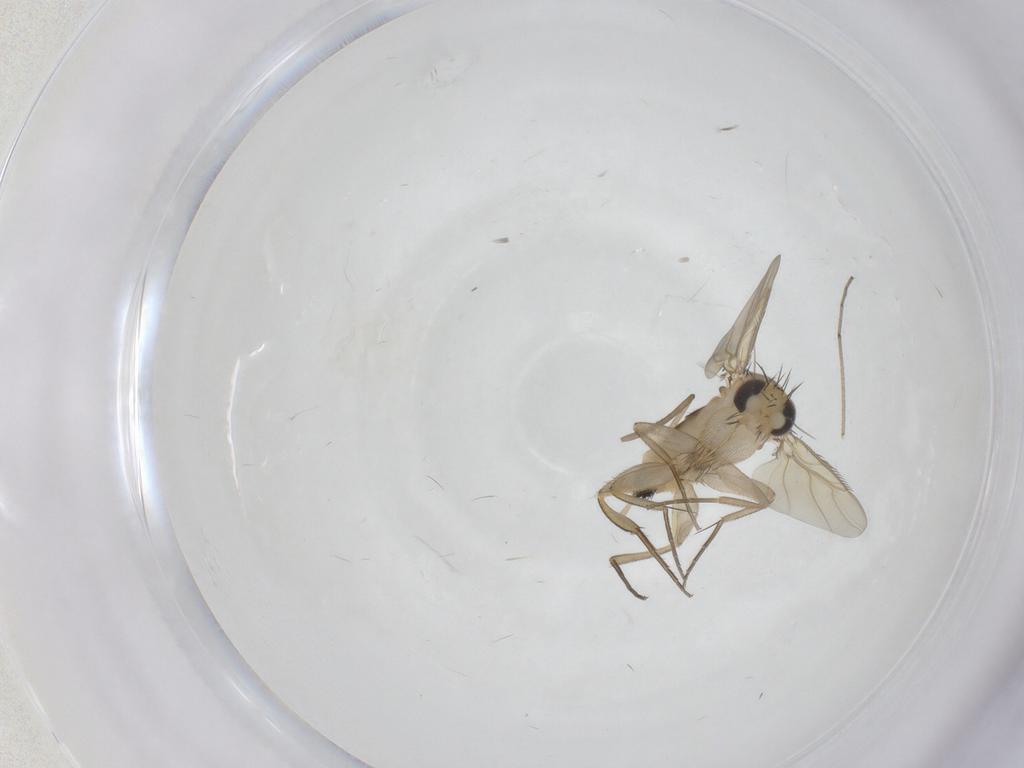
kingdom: Animalia
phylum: Arthropoda
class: Insecta
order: Diptera
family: Cecidomyiidae
